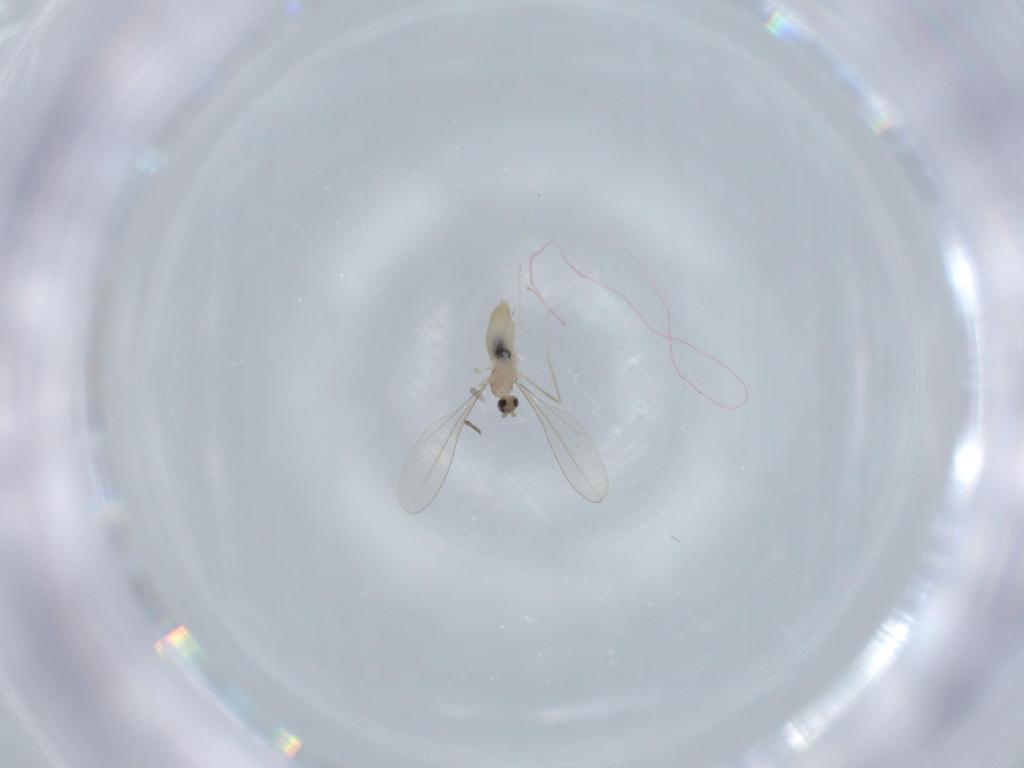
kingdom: Animalia
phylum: Arthropoda
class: Insecta
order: Diptera
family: Cecidomyiidae
